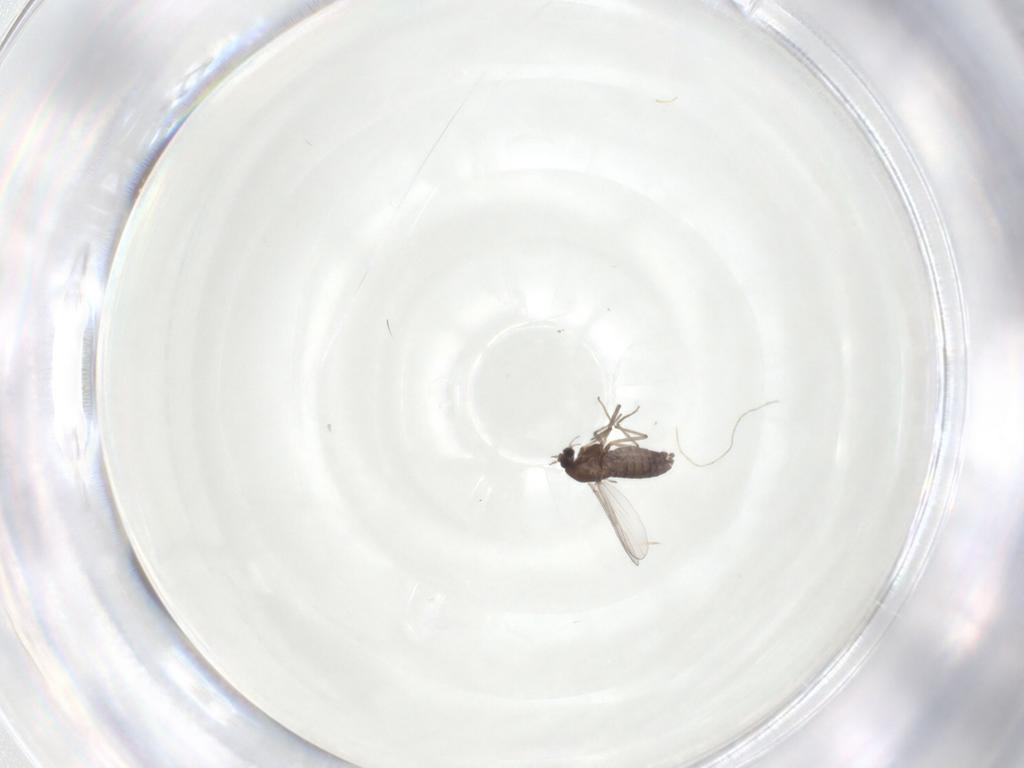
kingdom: Animalia
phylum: Arthropoda
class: Insecta
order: Diptera
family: Chironomidae
